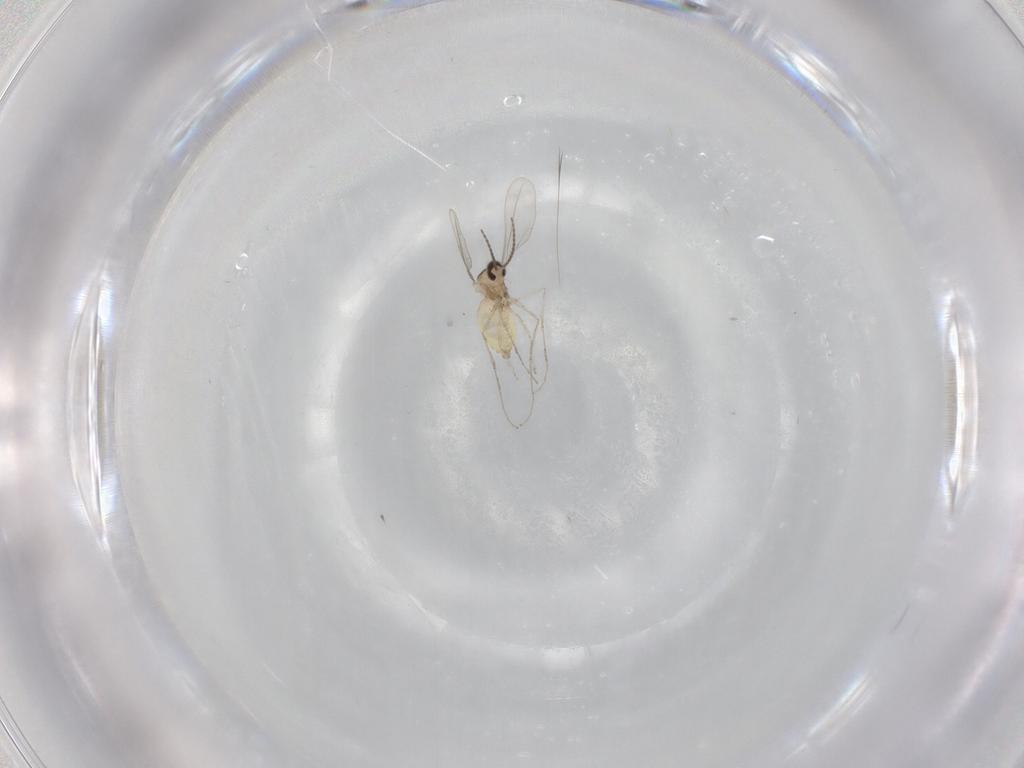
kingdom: Animalia
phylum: Arthropoda
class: Insecta
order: Diptera
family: Cecidomyiidae
